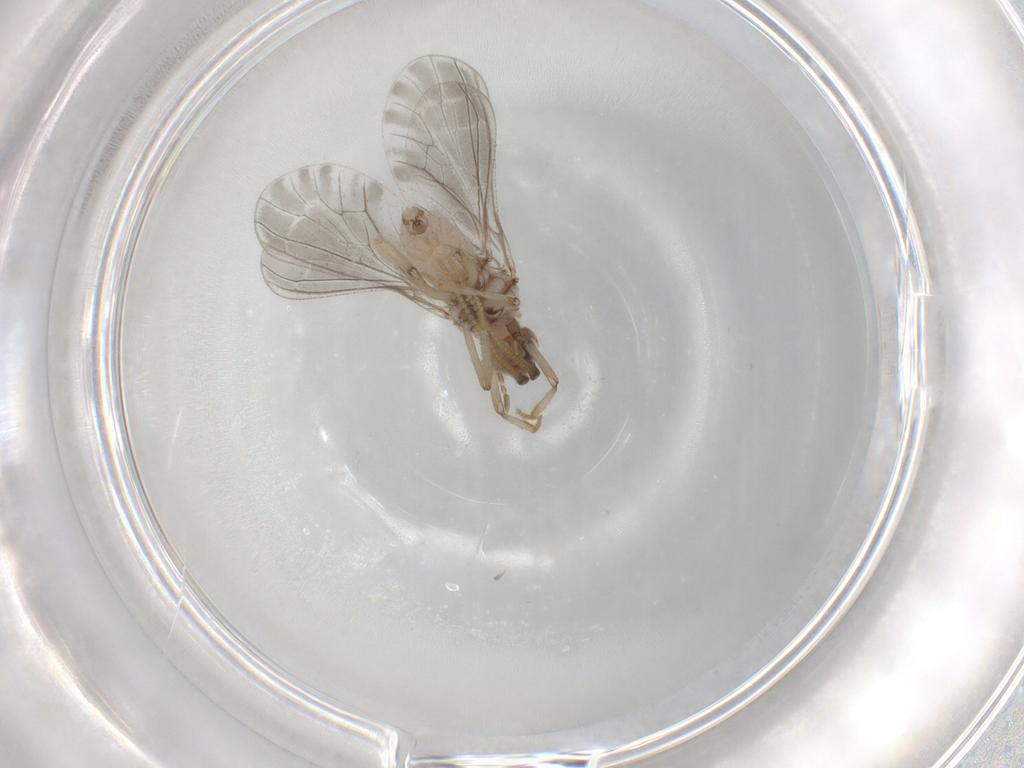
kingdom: Animalia
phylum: Arthropoda
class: Insecta
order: Neuroptera
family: Coniopterygidae
